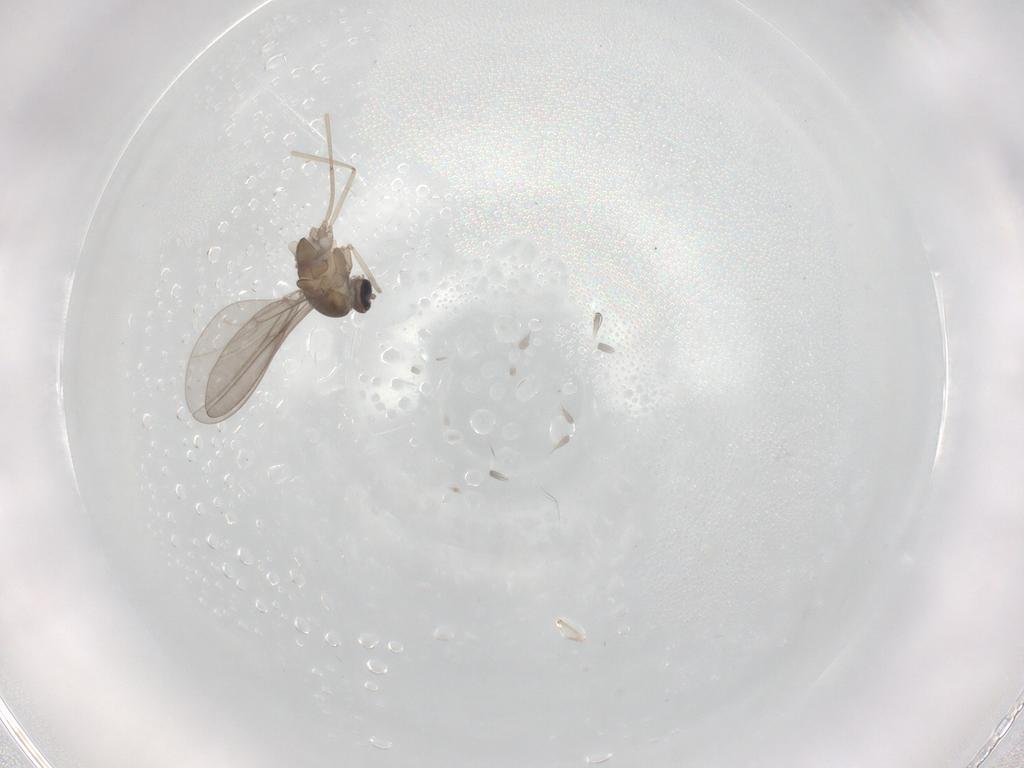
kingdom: Animalia
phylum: Arthropoda
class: Insecta
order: Diptera
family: Cecidomyiidae
